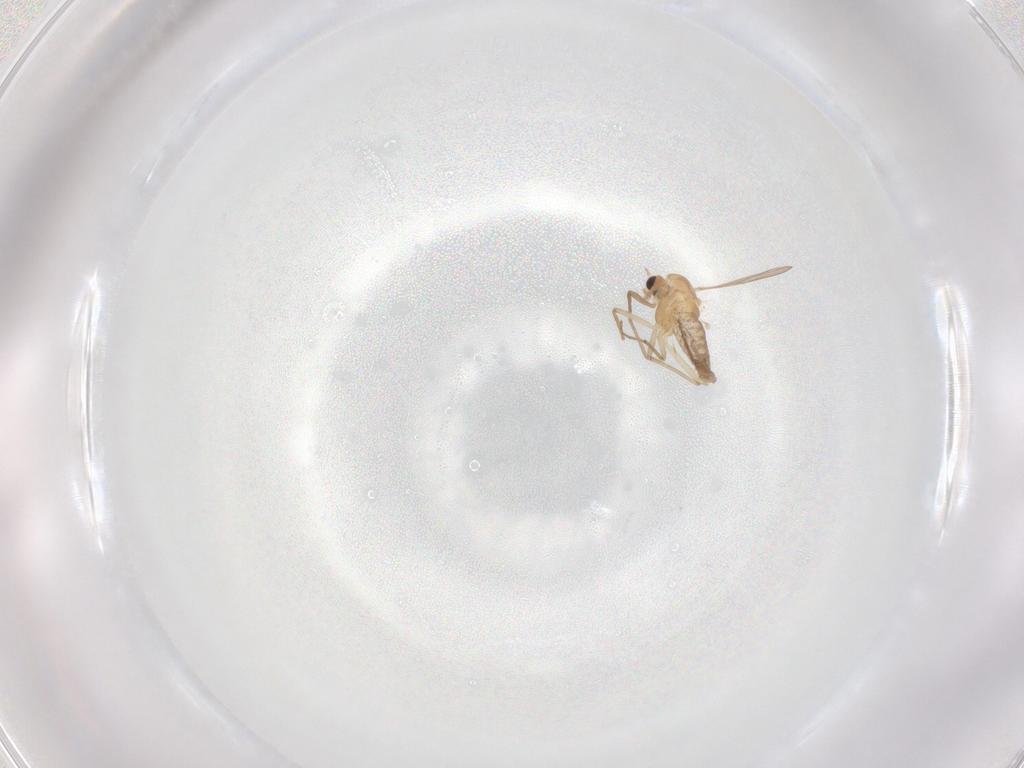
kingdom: Animalia
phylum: Arthropoda
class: Insecta
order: Diptera
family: Chironomidae
